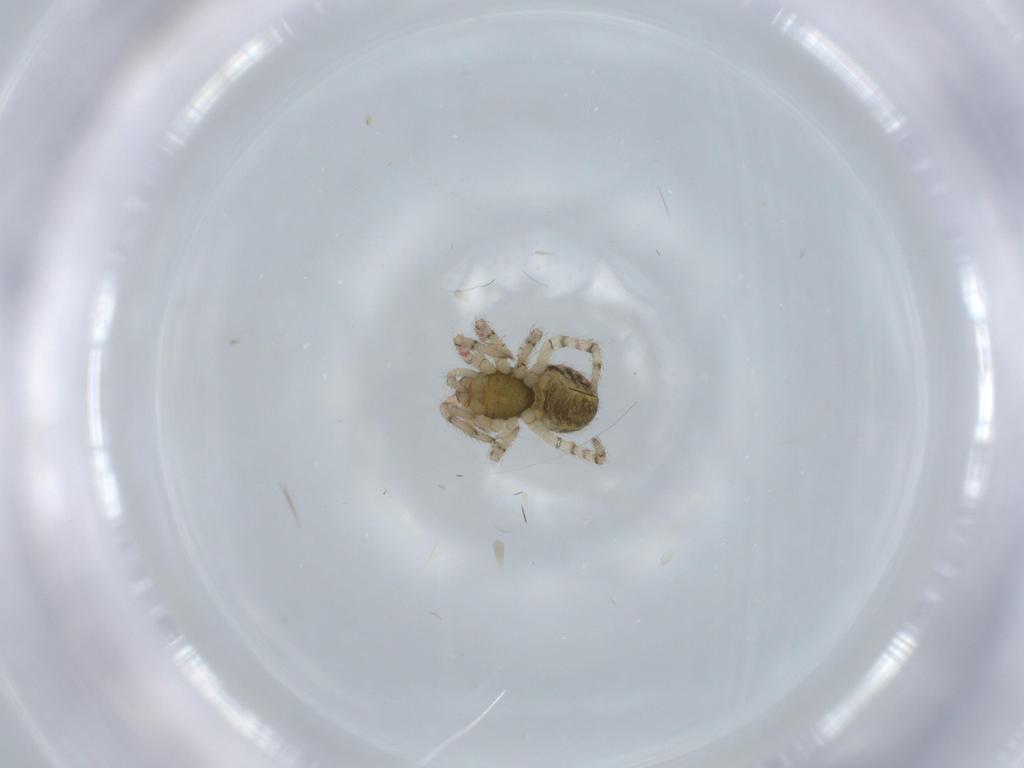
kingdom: Animalia
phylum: Arthropoda
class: Arachnida
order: Araneae
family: Theridiidae
